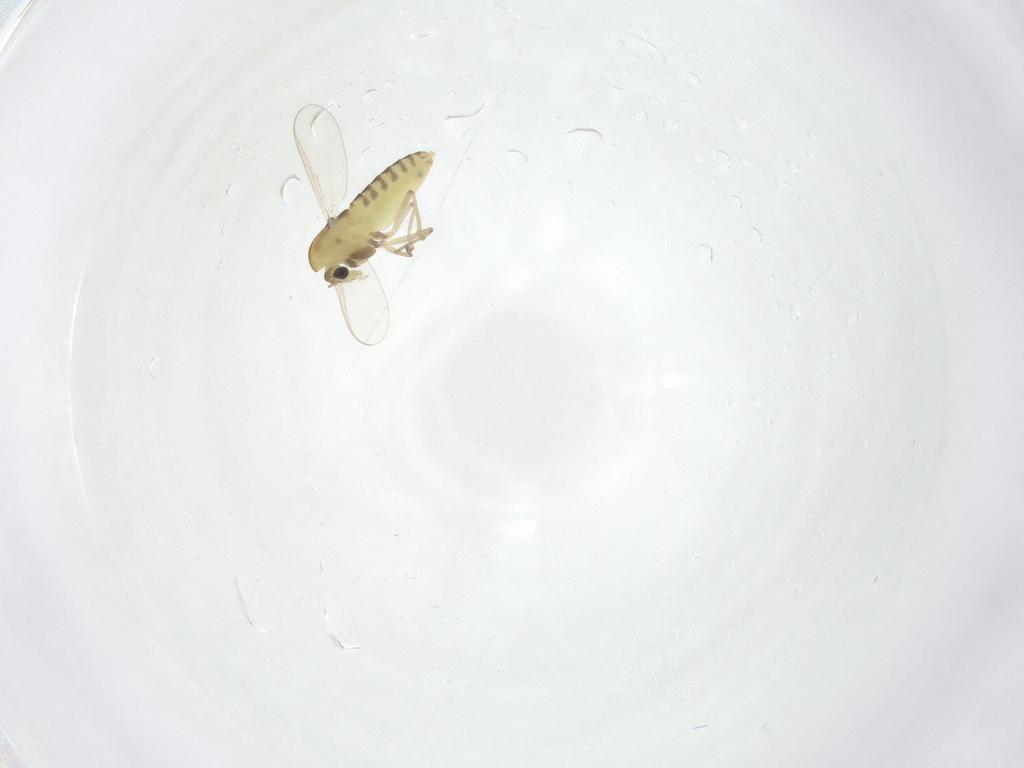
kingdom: Animalia
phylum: Arthropoda
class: Insecta
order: Diptera
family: Chironomidae
